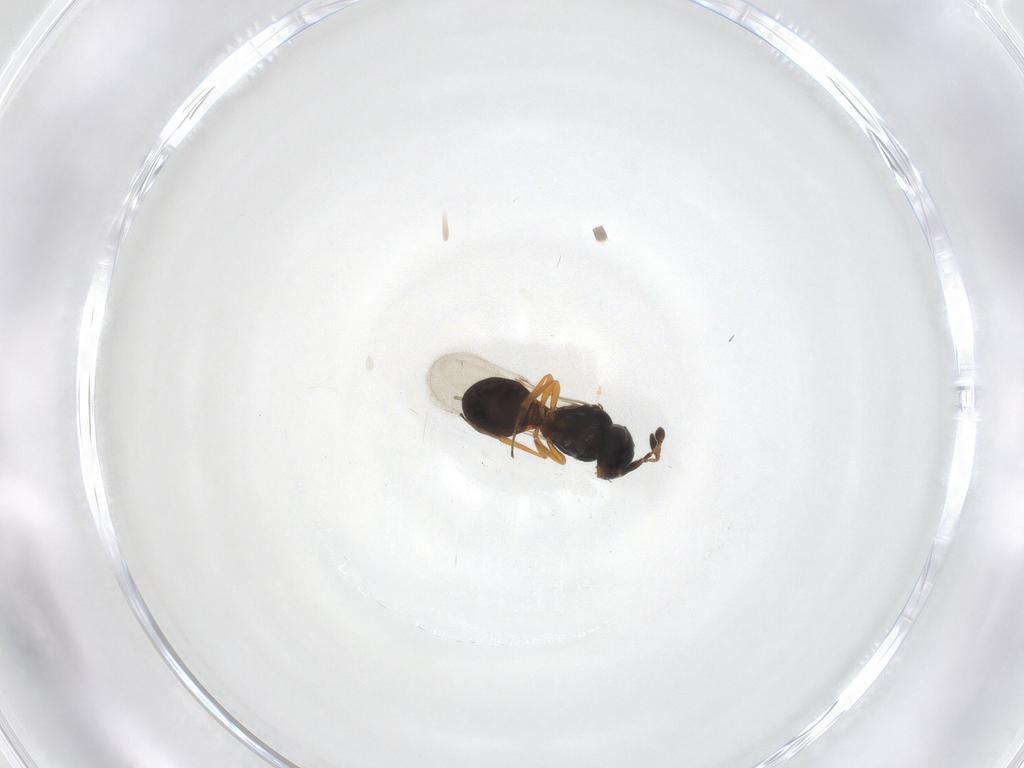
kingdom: Animalia
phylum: Arthropoda
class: Insecta
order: Hymenoptera
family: Scelionidae
